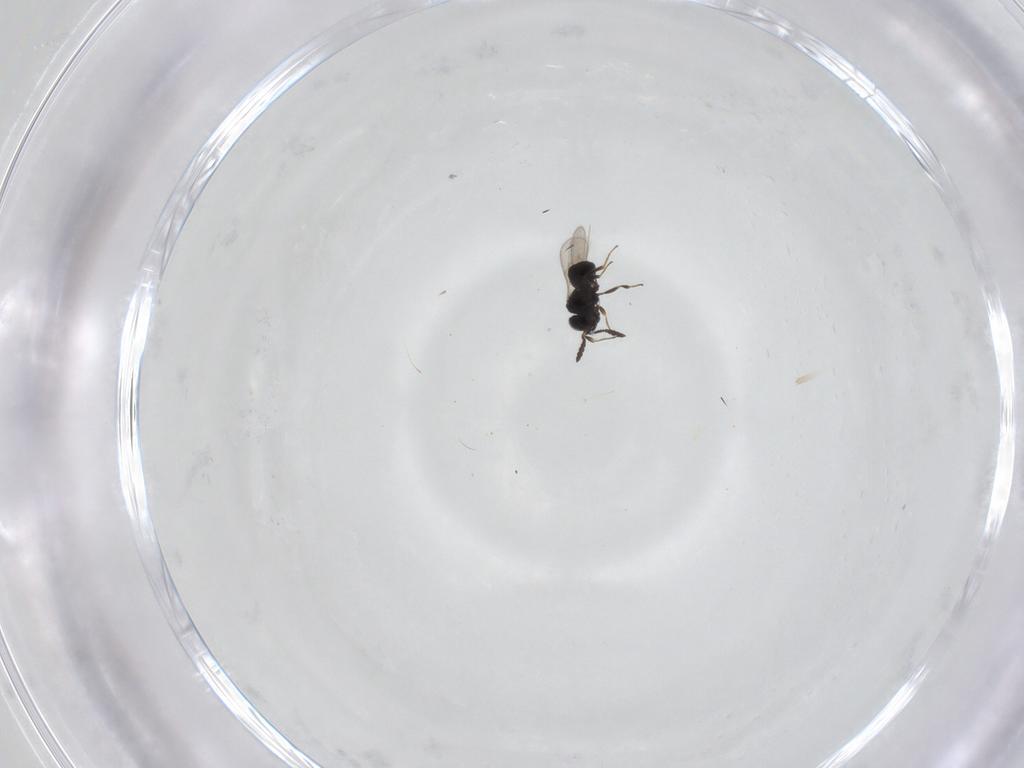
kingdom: Animalia
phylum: Arthropoda
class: Insecta
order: Hymenoptera
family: Scelionidae
